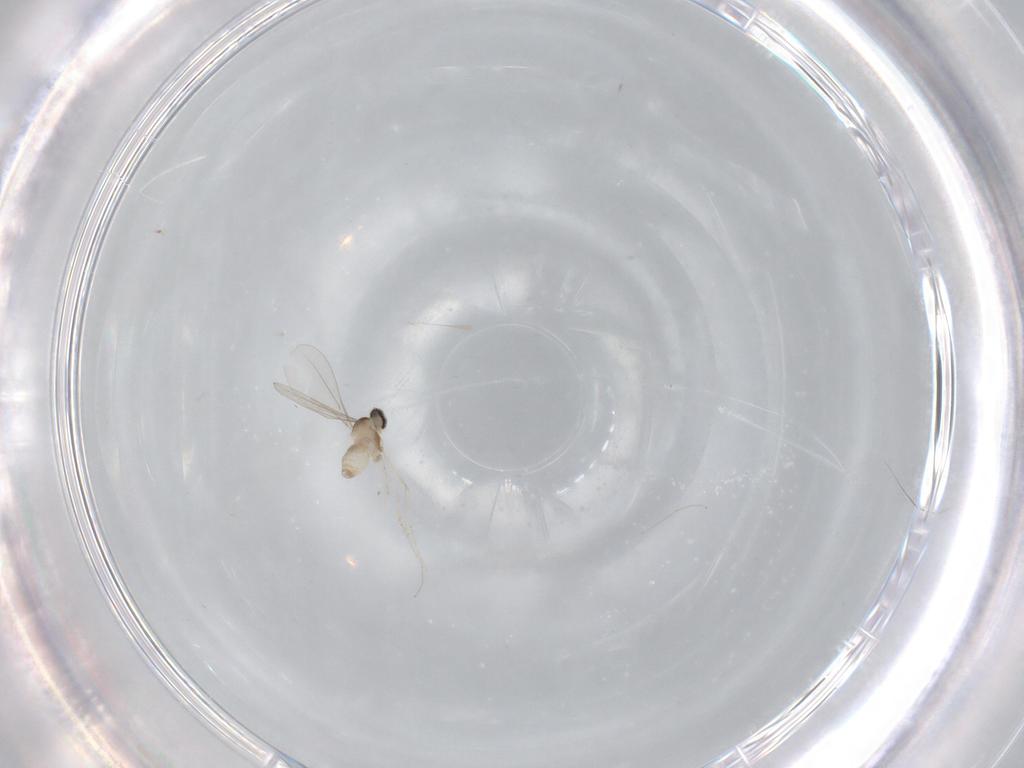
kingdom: Animalia
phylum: Arthropoda
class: Insecta
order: Diptera
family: Cecidomyiidae
